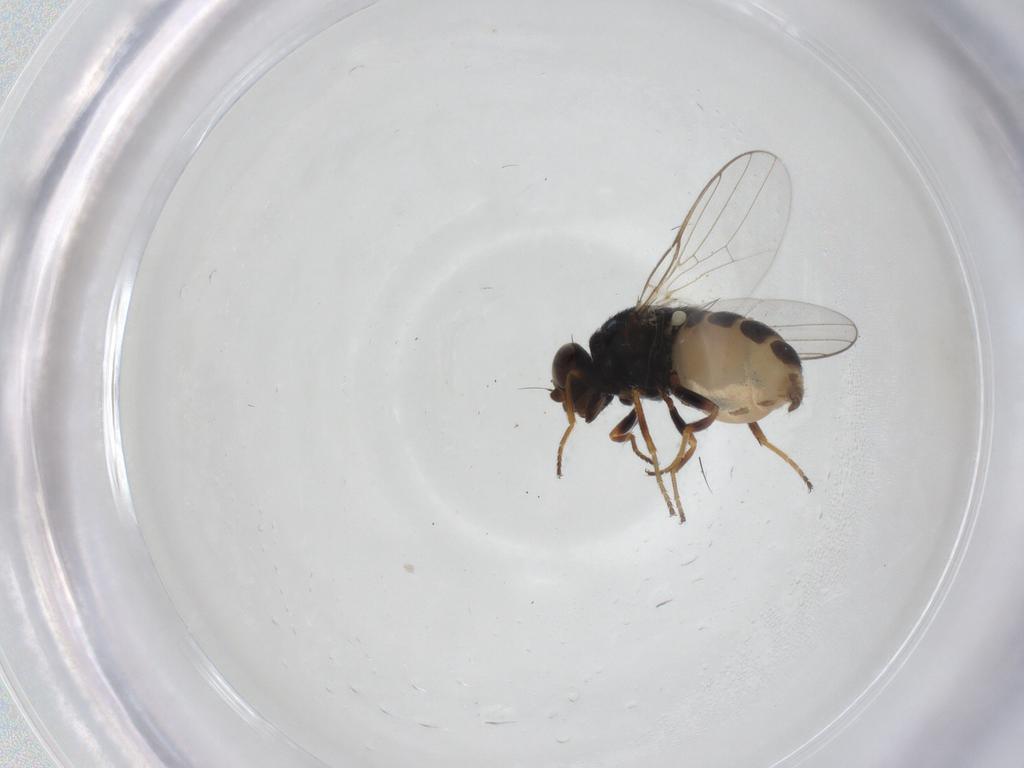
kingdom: Animalia
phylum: Arthropoda
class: Insecta
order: Diptera
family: Chloropidae
